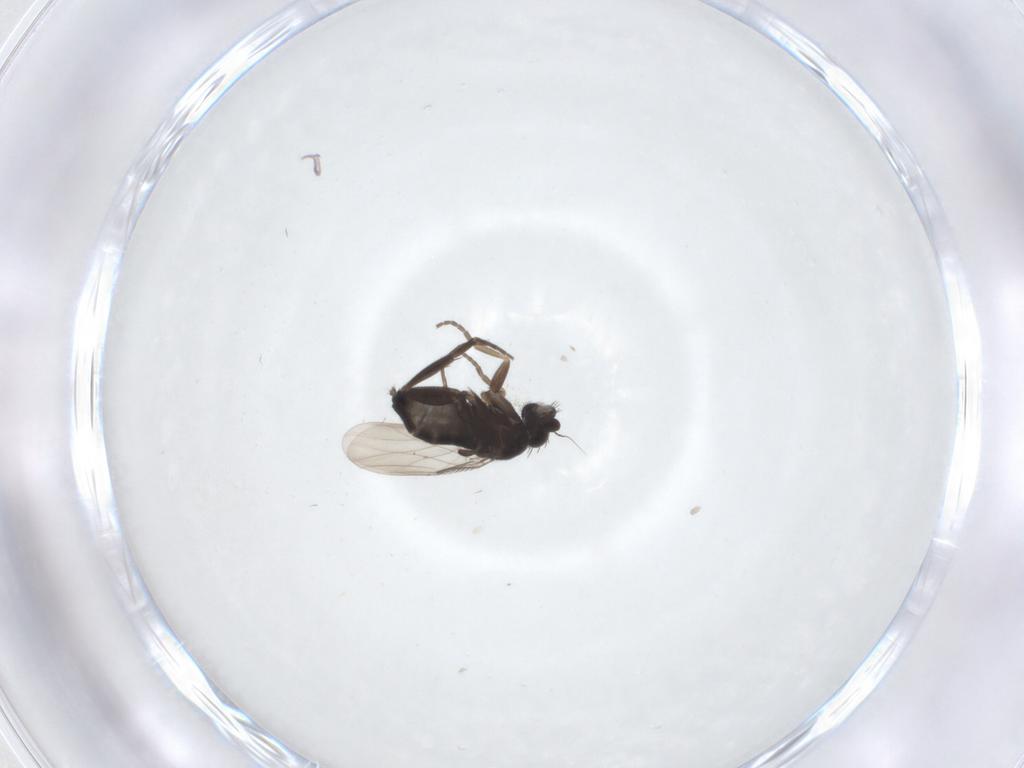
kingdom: Animalia
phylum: Arthropoda
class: Insecta
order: Diptera
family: Phoridae
